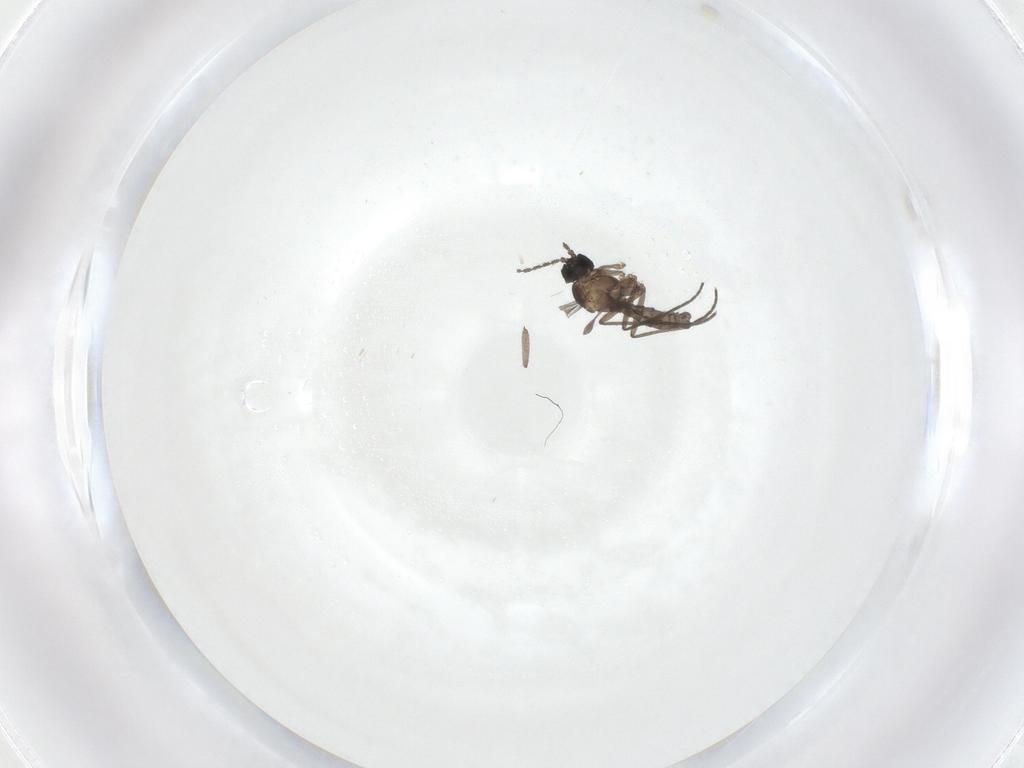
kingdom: Animalia
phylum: Arthropoda
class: Insecta
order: Diptera
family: Sciaridae
